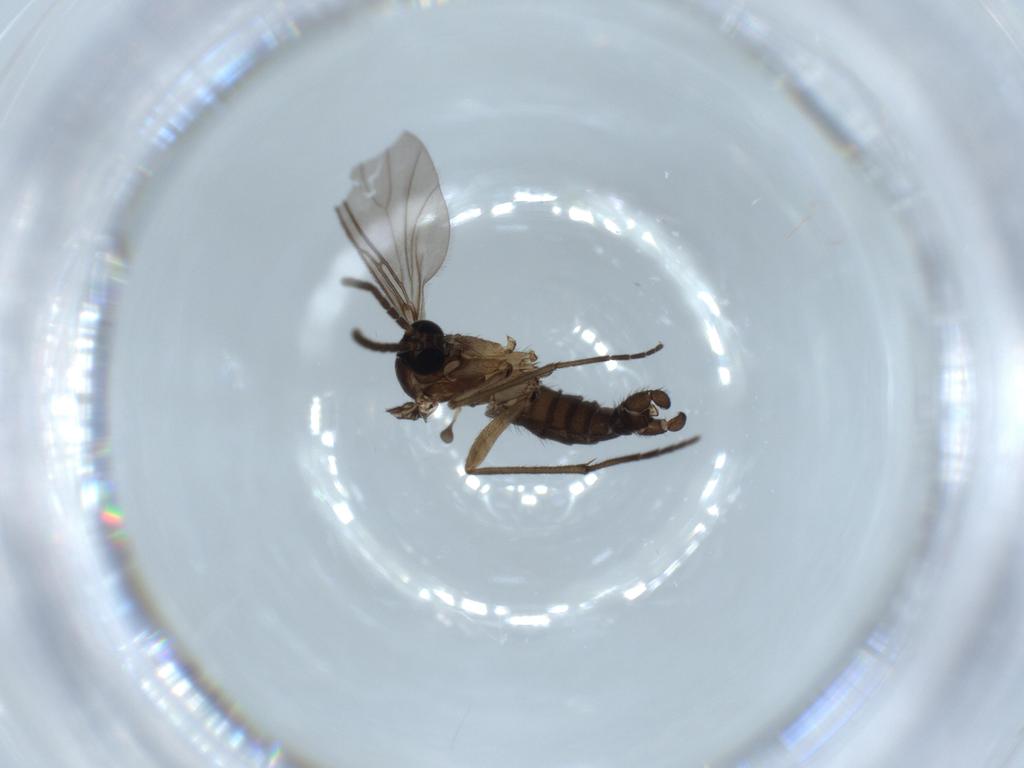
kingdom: Animalia
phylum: Arthropoda
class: Insecta
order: Diptera
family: Sciaridae
